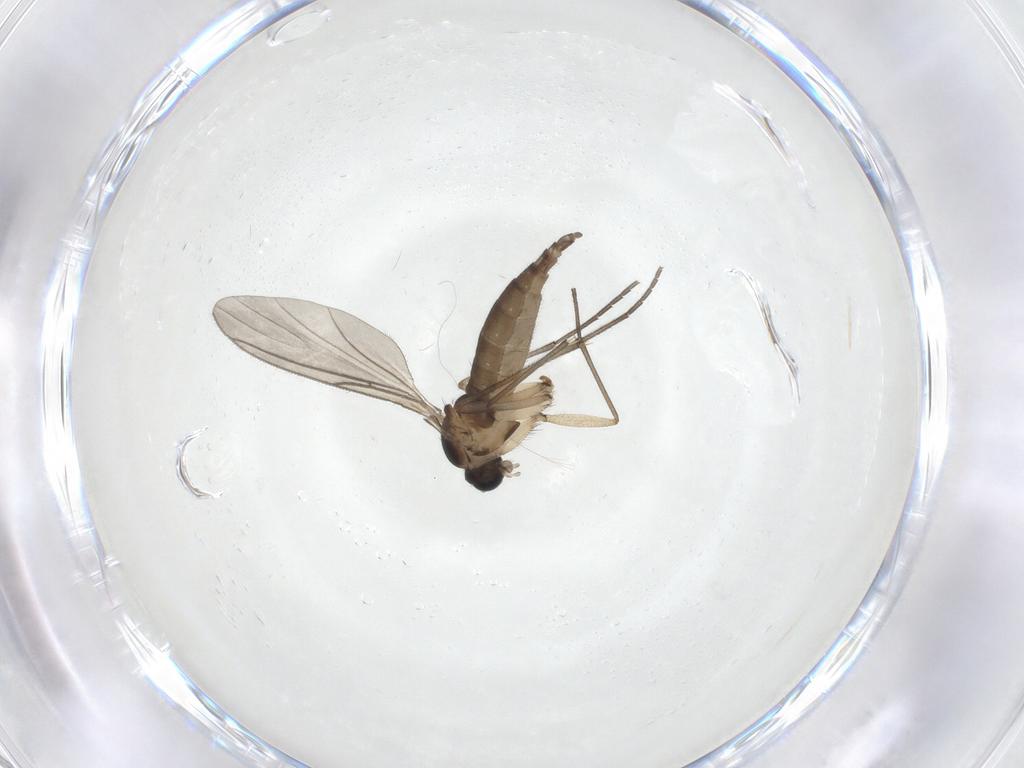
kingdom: Animalia
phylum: Arthropoda
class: Insecta
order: Diptera
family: Sciaridae
